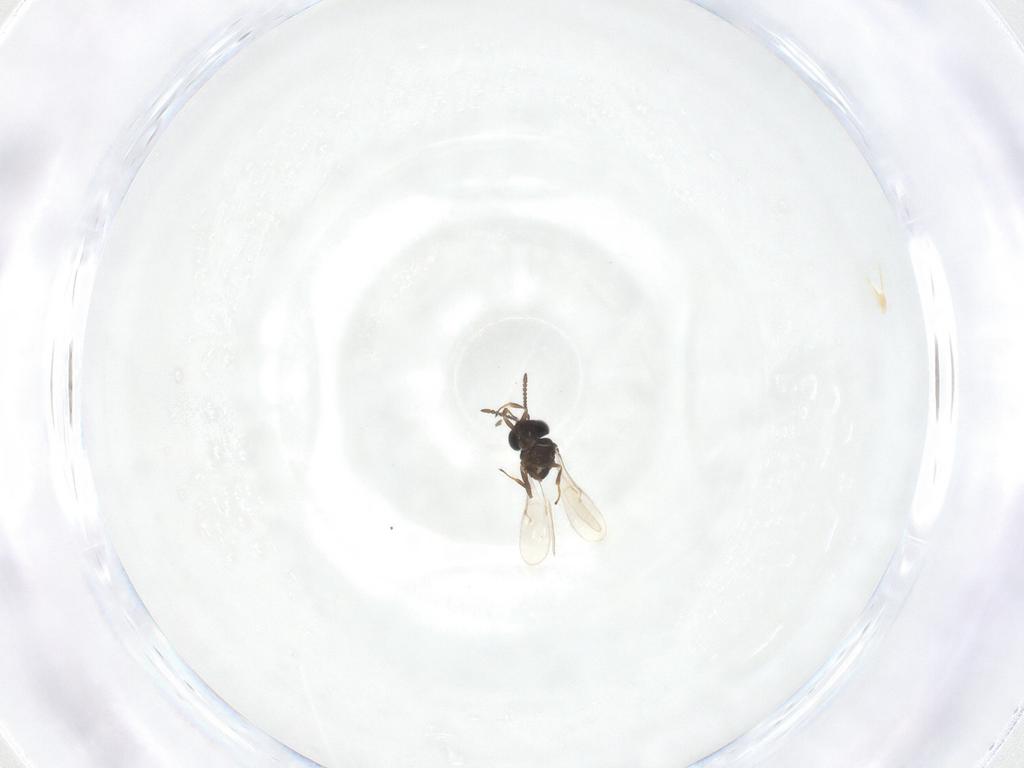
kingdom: Animalia
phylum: Arthropoda
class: Insecta
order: Hymenoptera
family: Scelionidae
